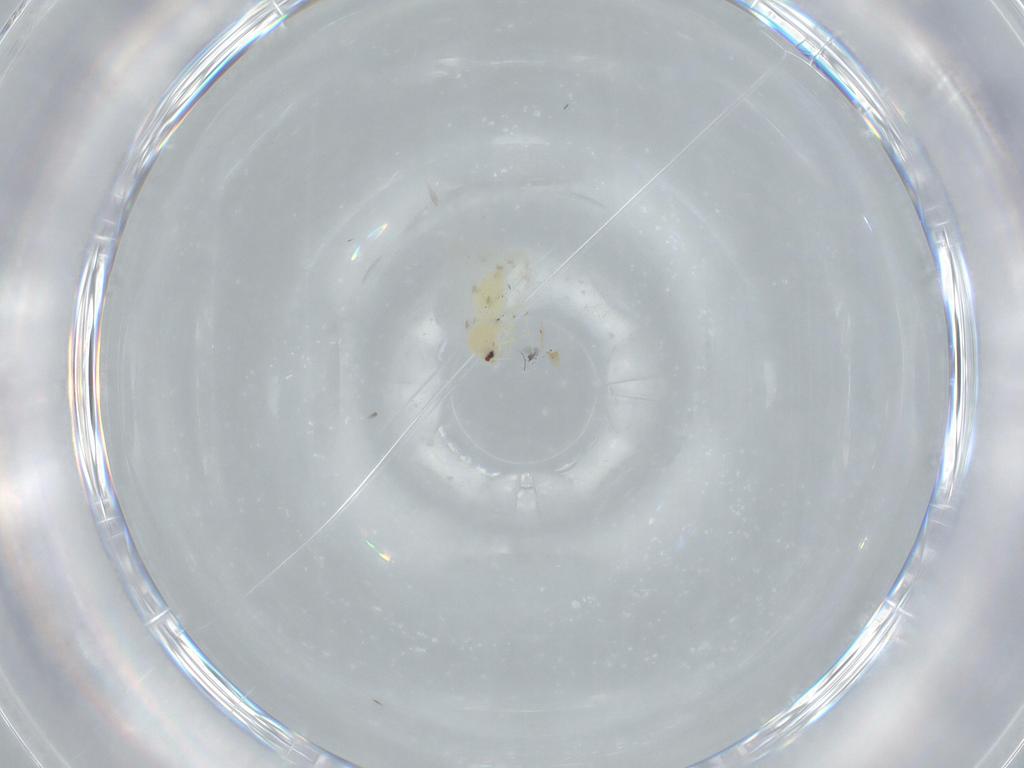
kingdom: Animalia
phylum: Arthropoda
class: Insecta
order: Hemiptera
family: Aleyrodidae
